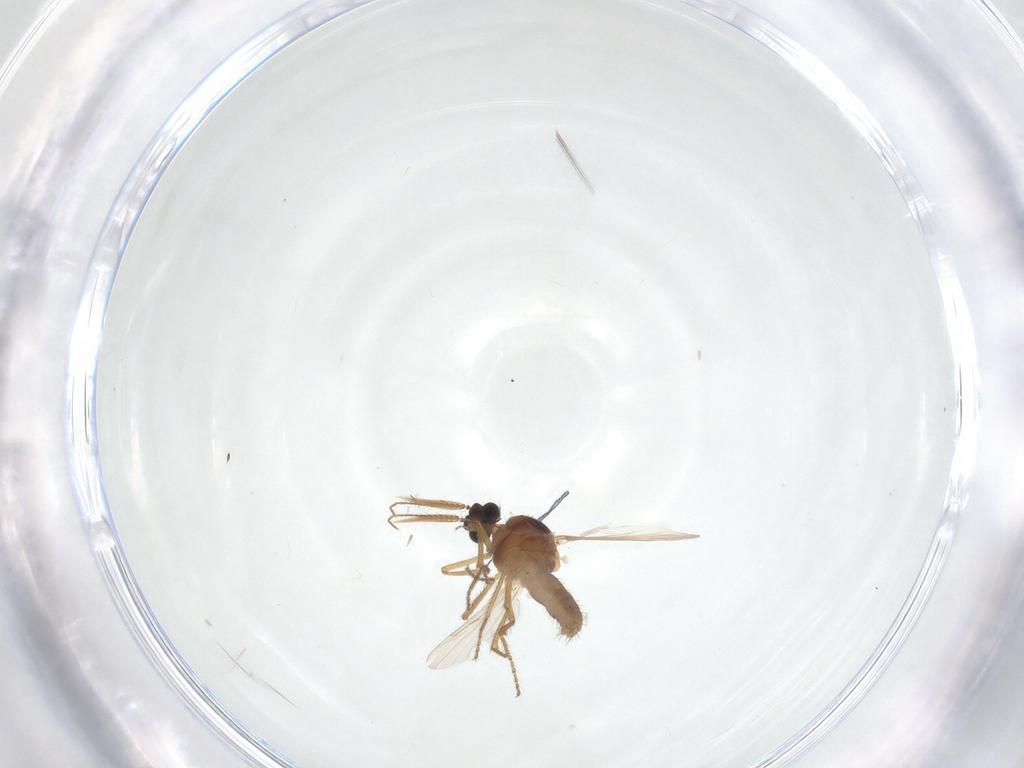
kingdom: Animalia
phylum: Arthropoda
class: Insecta
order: Diptera
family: Ceratopogonidae
